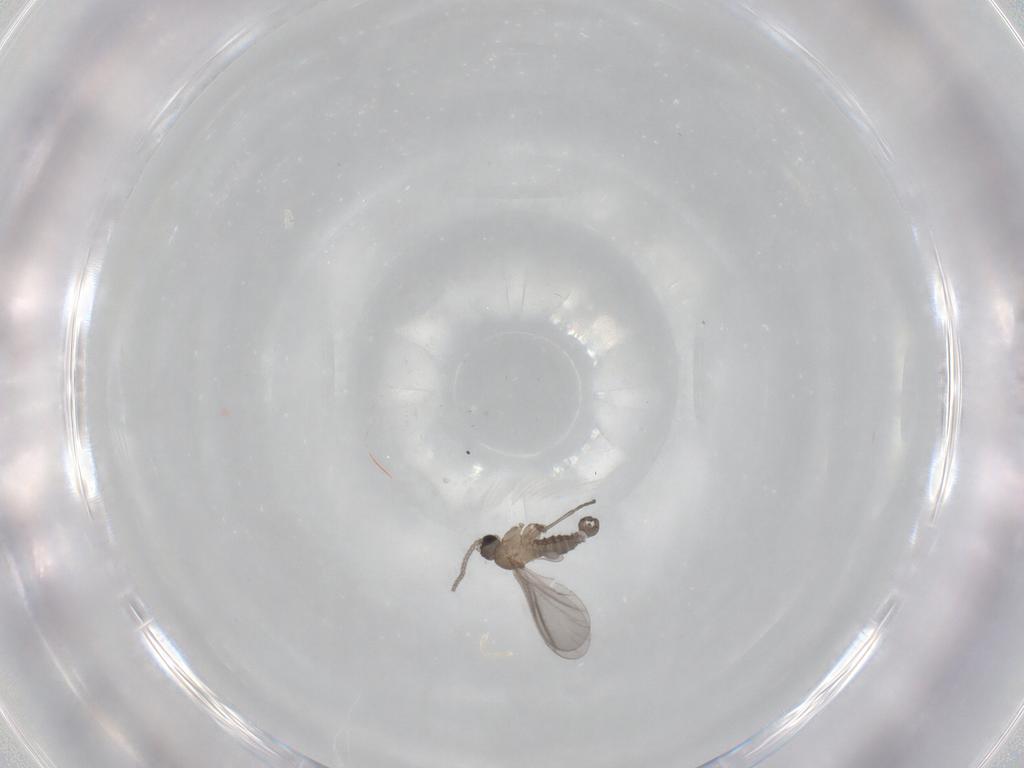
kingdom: Animalia
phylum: Arthropoda
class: Insecta
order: Diptera
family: Sciaridae
